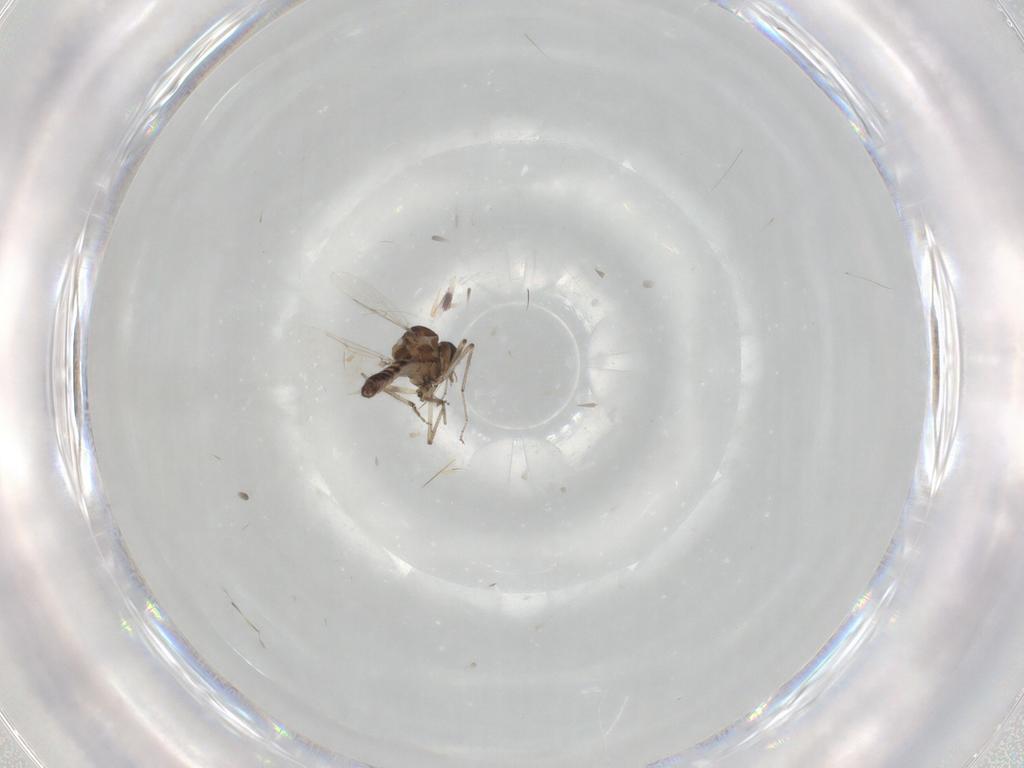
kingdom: Animalia
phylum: Arthropoda
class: Insecta
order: Diptera
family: Ceratopogonidae
